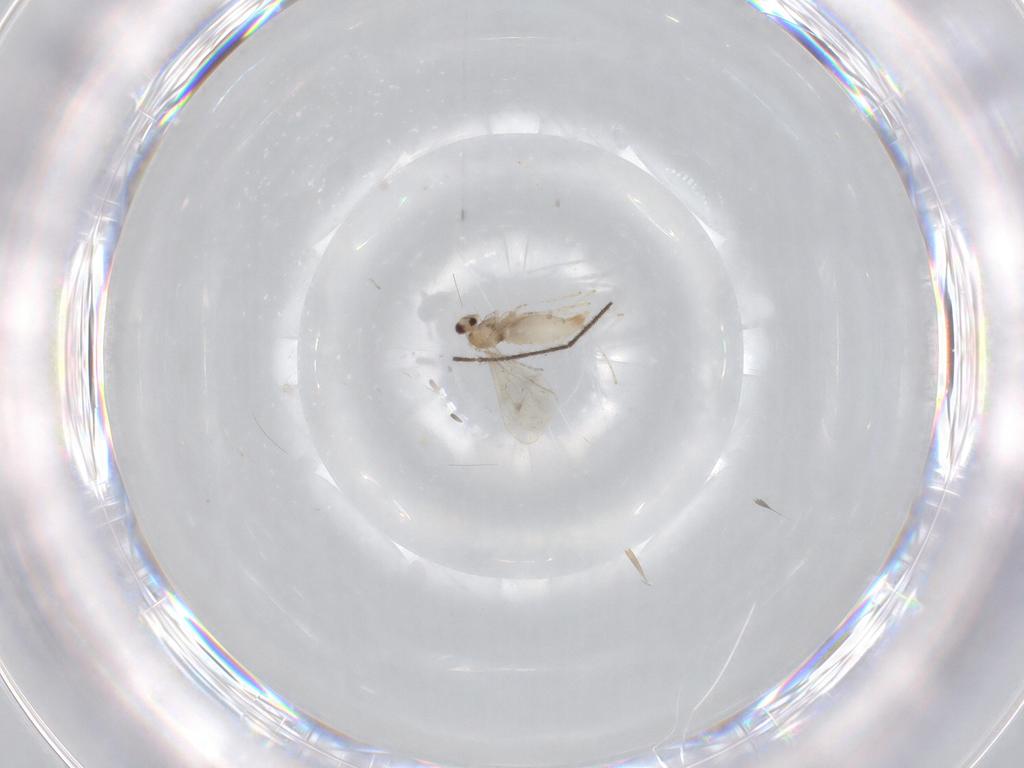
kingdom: Animalia
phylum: Arthropoda
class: Insecta
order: Diptera
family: Cecidomyiidae
